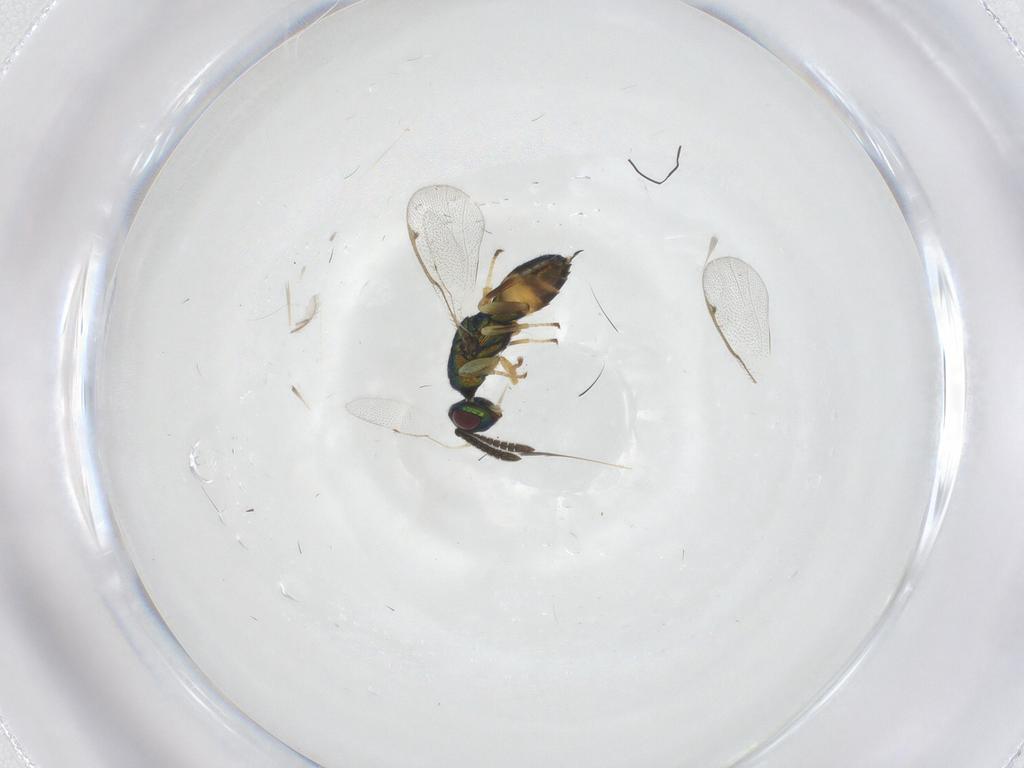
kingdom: Animalia
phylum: Arthropoda
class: Insecta
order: Hymenoptera
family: Torymidae
